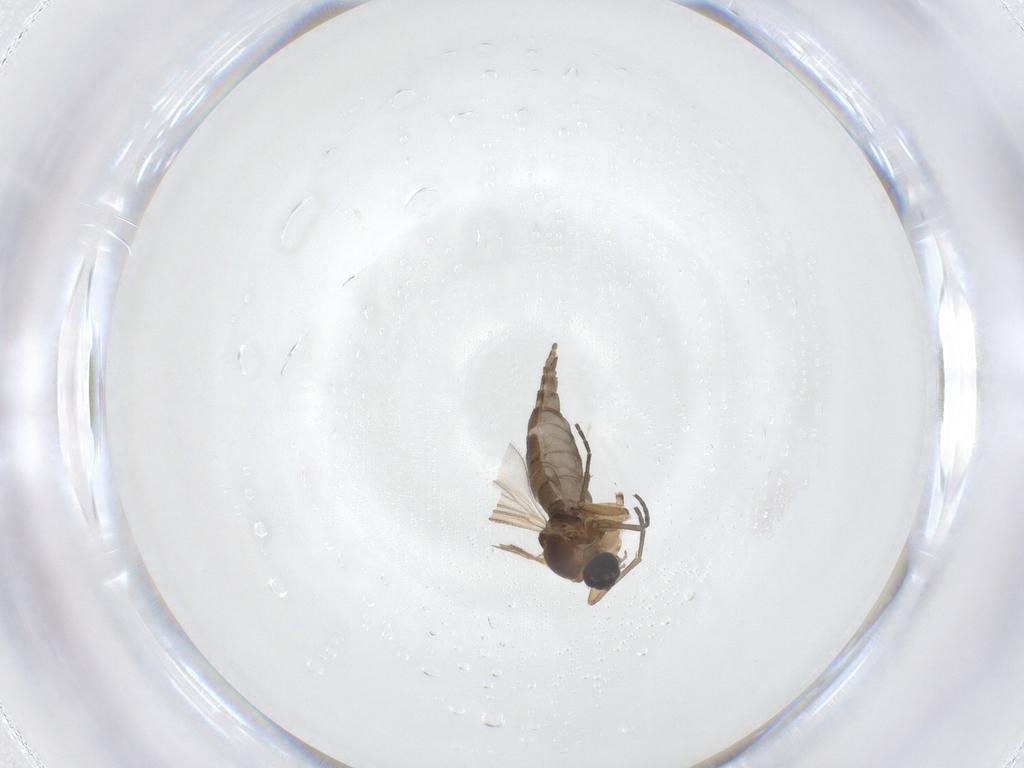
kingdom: Animalia
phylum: Arthropoda
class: Insecta
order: Diptera
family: Sciaridae
